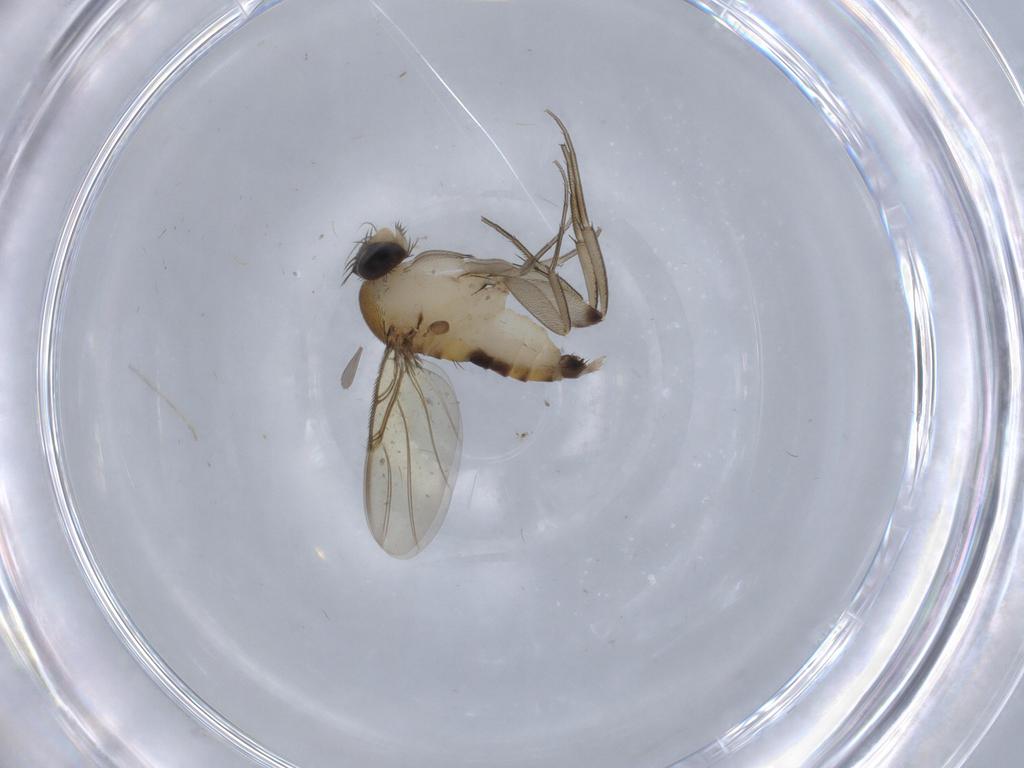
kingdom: Animalia
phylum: Arthropoda
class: Insecta
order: Diptera
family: Phoridae
